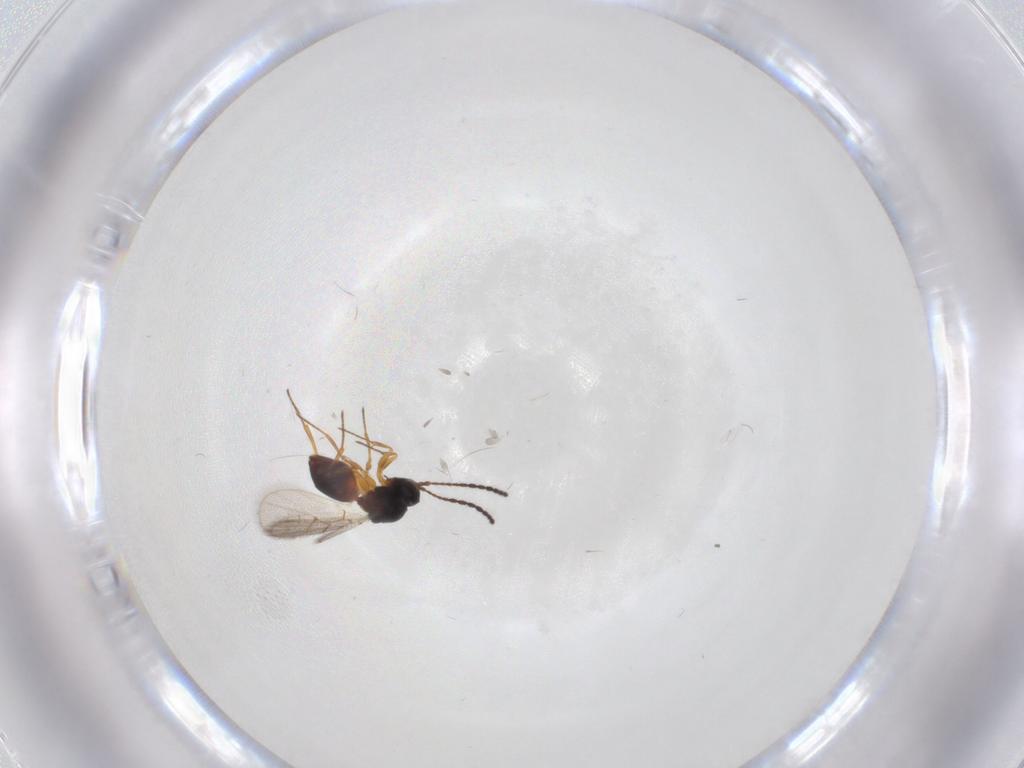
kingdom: Animalia
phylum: Arthropoda
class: Insecta
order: Hymenoptera
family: Figitidae
